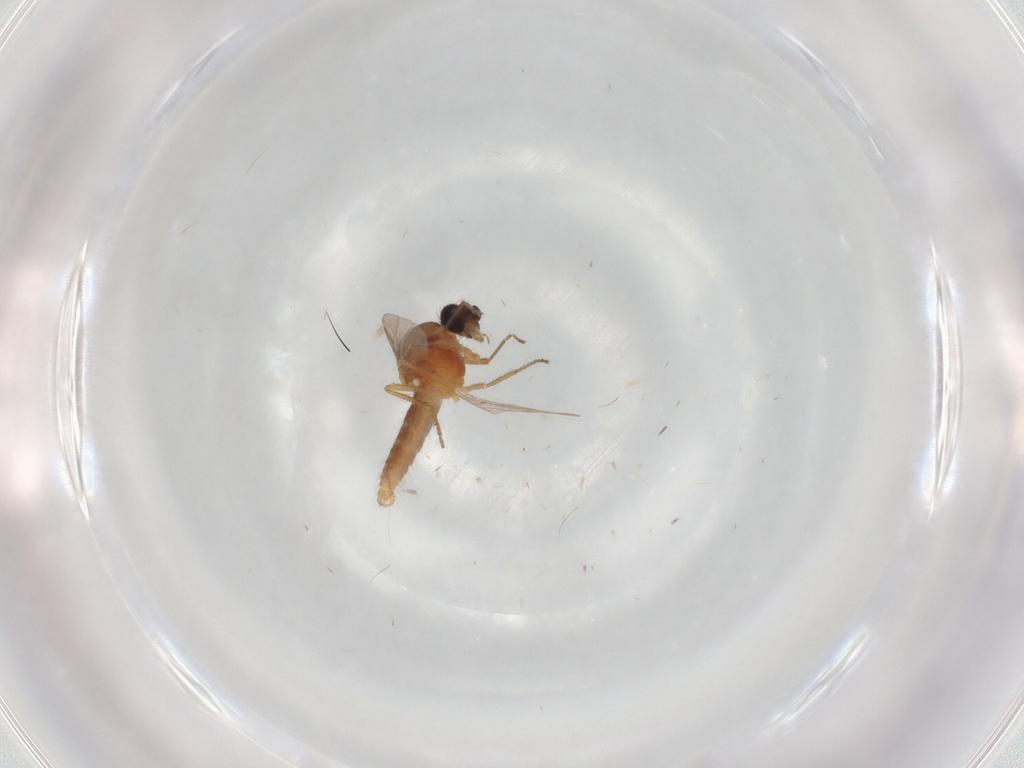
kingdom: Animalia
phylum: Arthropoda
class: Insecta
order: Diptera
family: Ceratopogonidae
